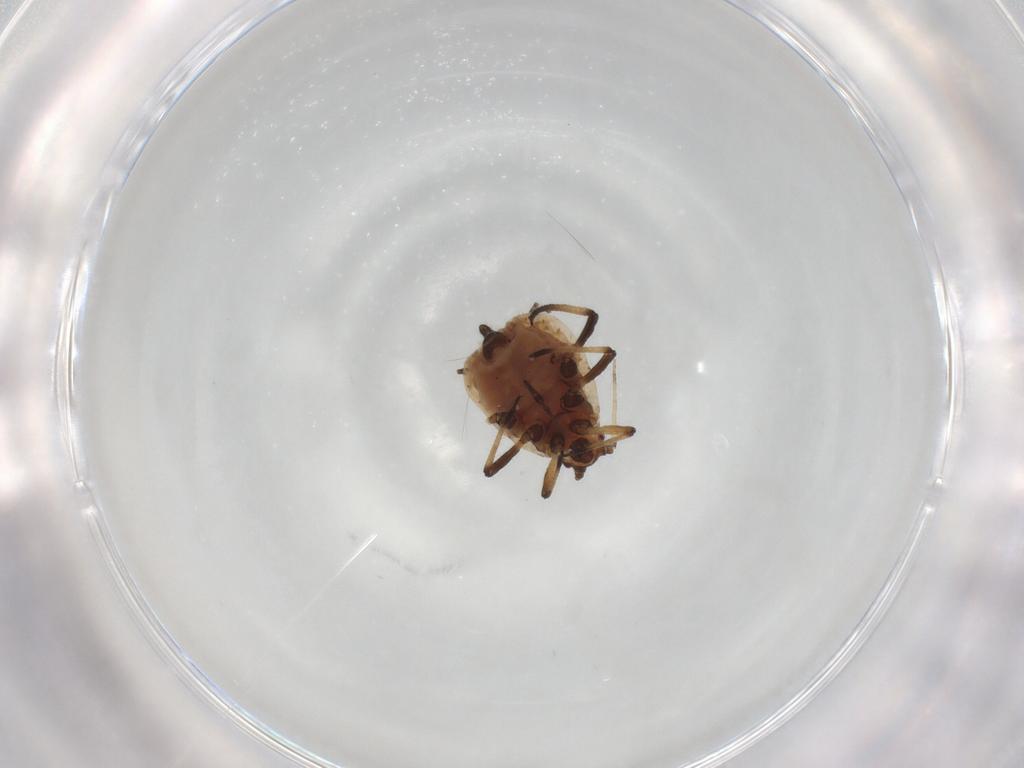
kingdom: Animalia
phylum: Arthropoda
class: Insecta
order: Hemiptera
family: Aphididae
